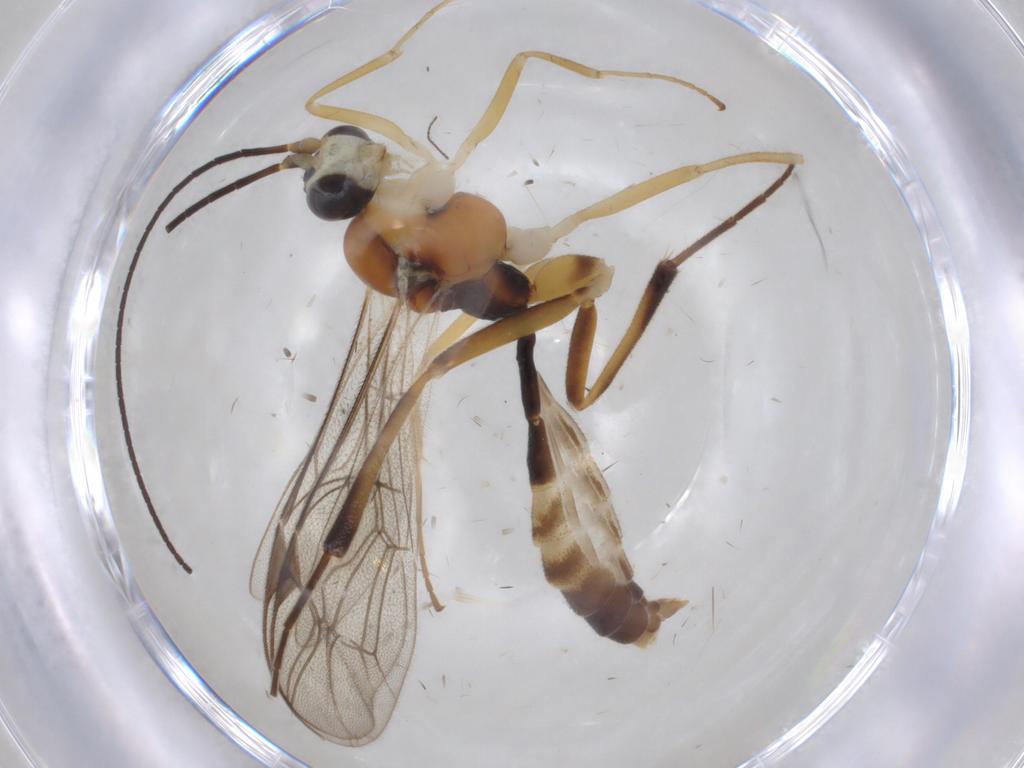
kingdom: Animalia
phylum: Arthropoda
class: Insecta
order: Hymenoptera
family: Ichneumonidae
